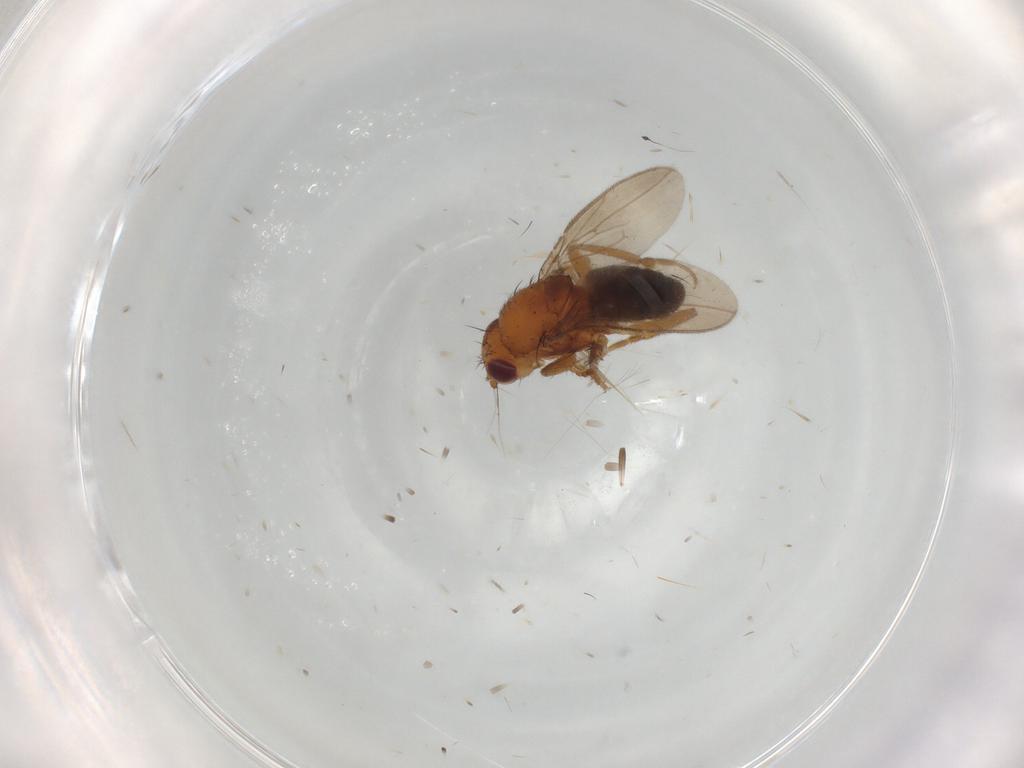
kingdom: Animalia
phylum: Arthropoda
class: Insecta
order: Diptera
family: Sphaeroceridae
